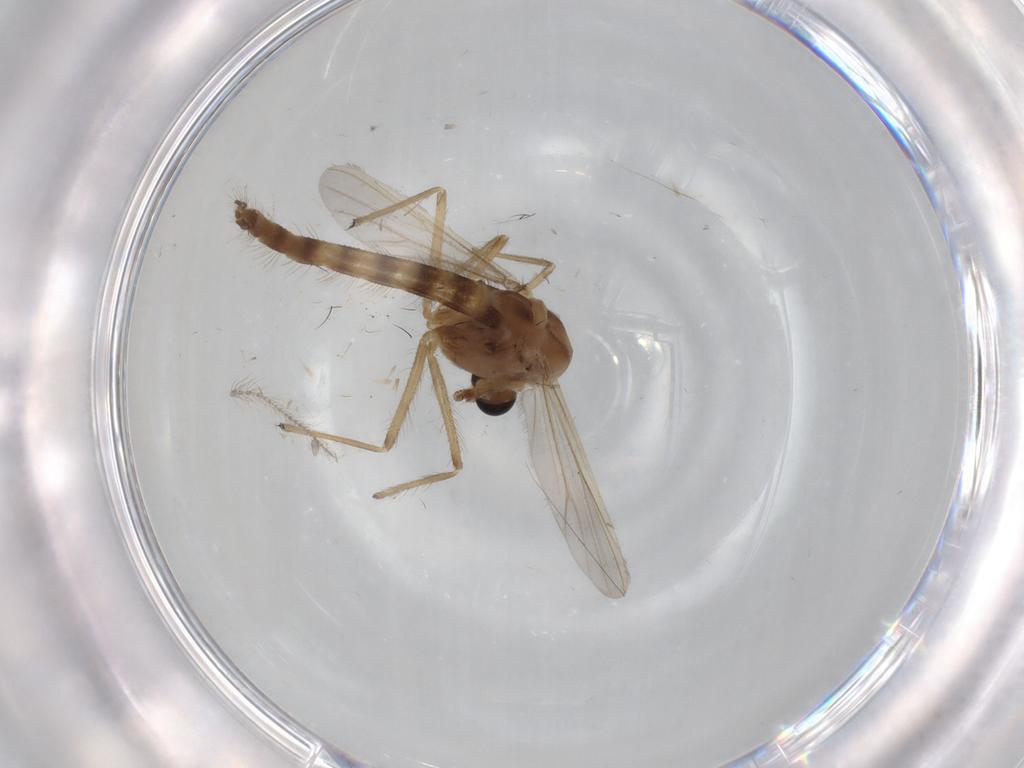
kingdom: Animalia
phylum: Arthropoda
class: Insecta
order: Diptera
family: Chironomidae
